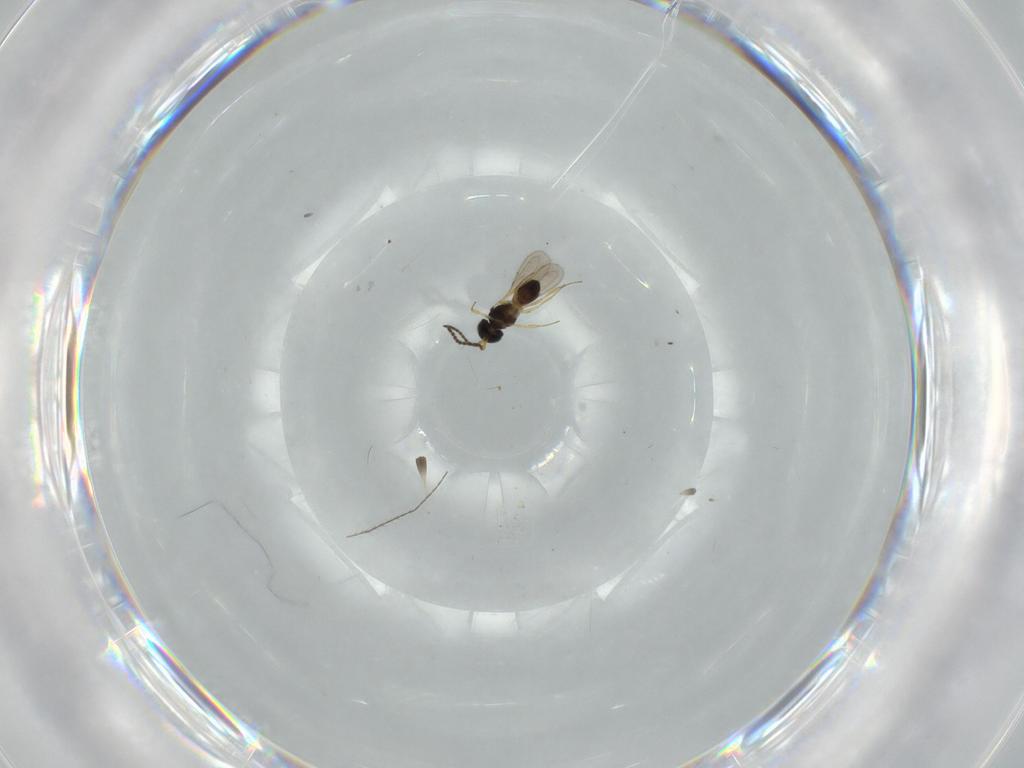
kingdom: Animalia
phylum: Arthropoda
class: Insecta
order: Hymenoptera
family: Scelionidae
